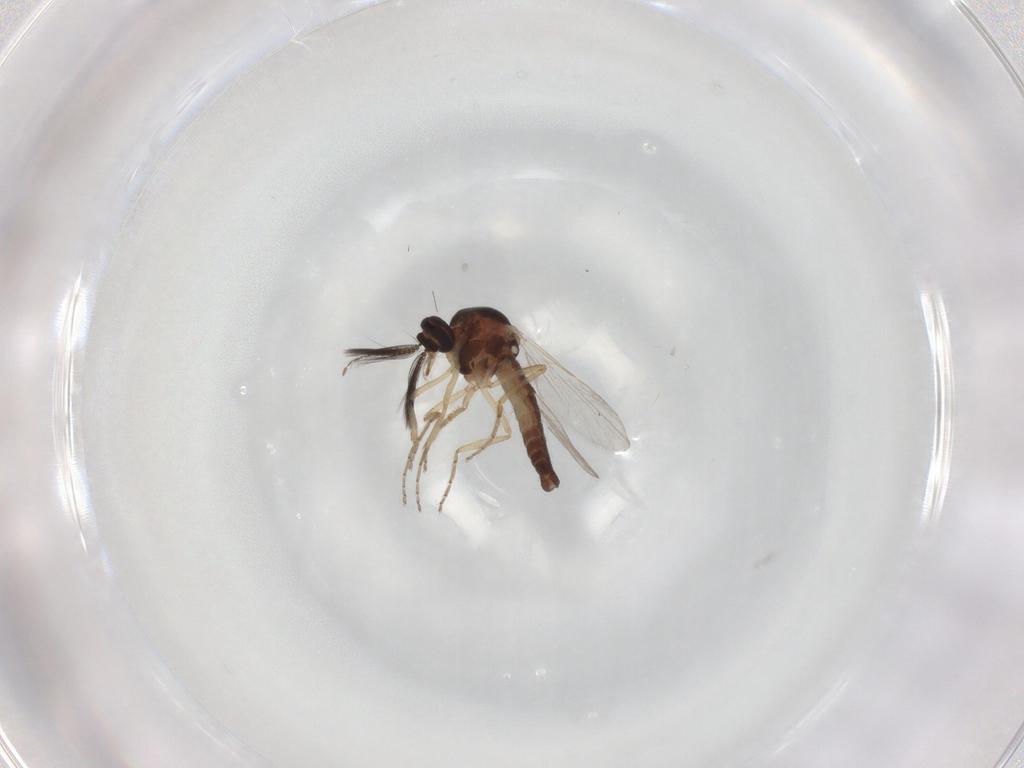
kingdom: Animalia
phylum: Arthropoda
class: Insecta
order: Diptera
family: Ceratopogonidae
